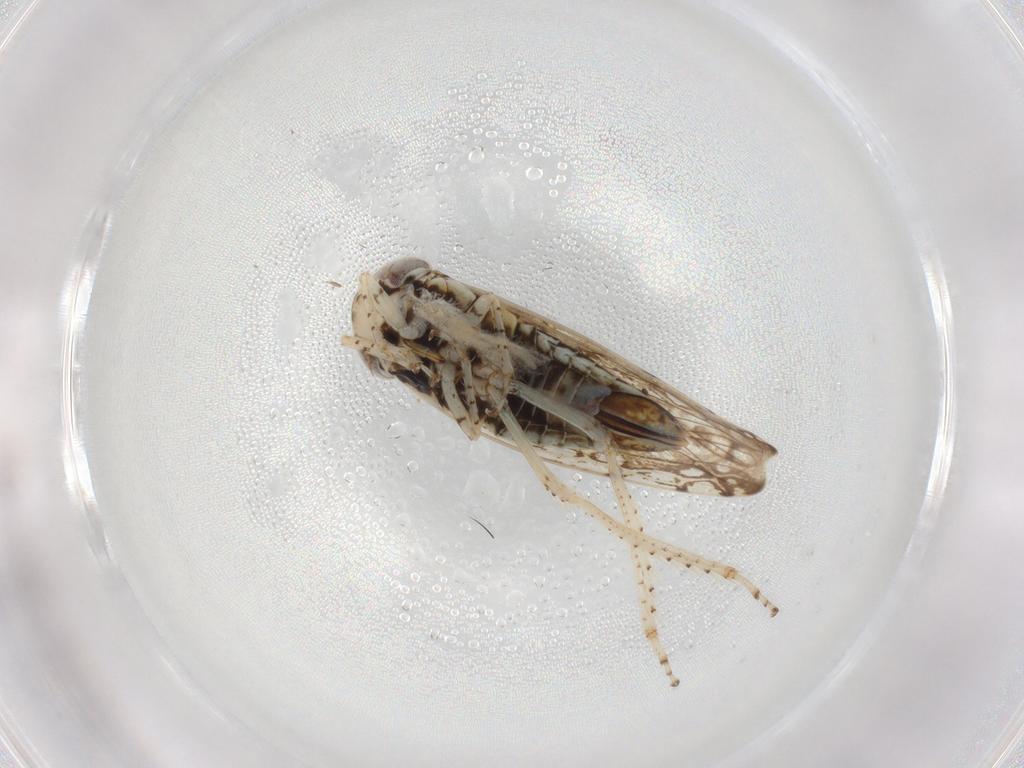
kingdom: Animalia
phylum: Arthropoda
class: Insecta
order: Hemiptera
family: Cicadellidae
